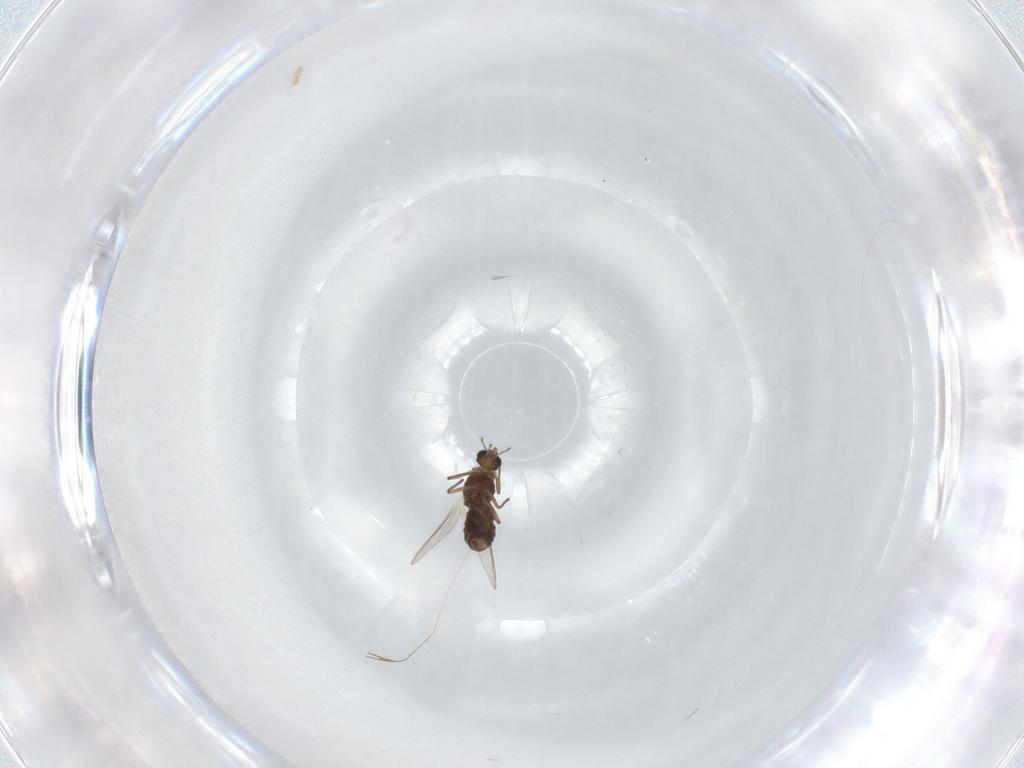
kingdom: Animalia
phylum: Arthropoda
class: Insecta
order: Diptera
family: Chironomidae
